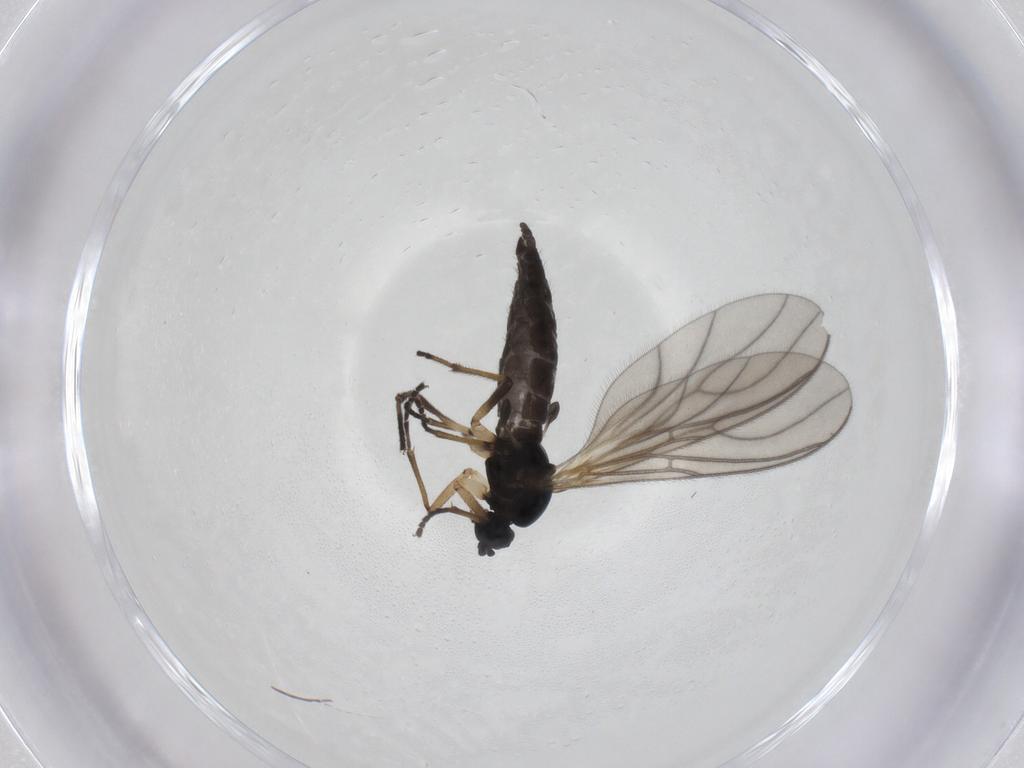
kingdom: Animalia
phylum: Arthropoda
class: Insecta
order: Diptera
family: Sciaridae
